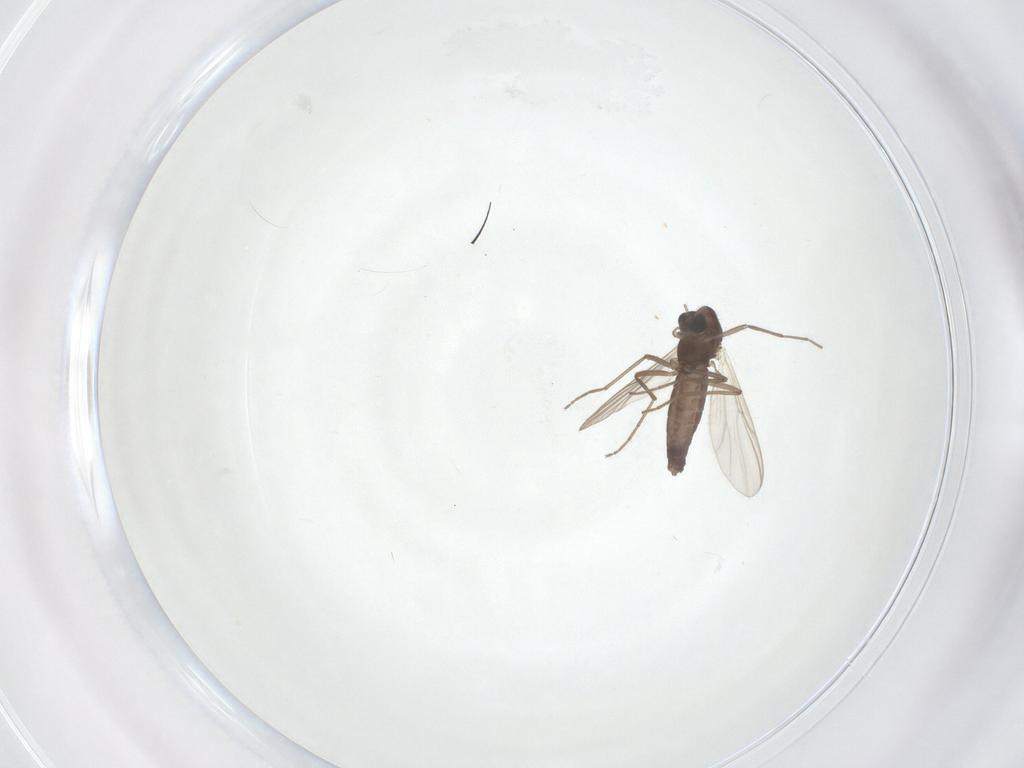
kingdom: Animalia
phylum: Arthropoda
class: Insecta
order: Diptera
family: Chironomidae
